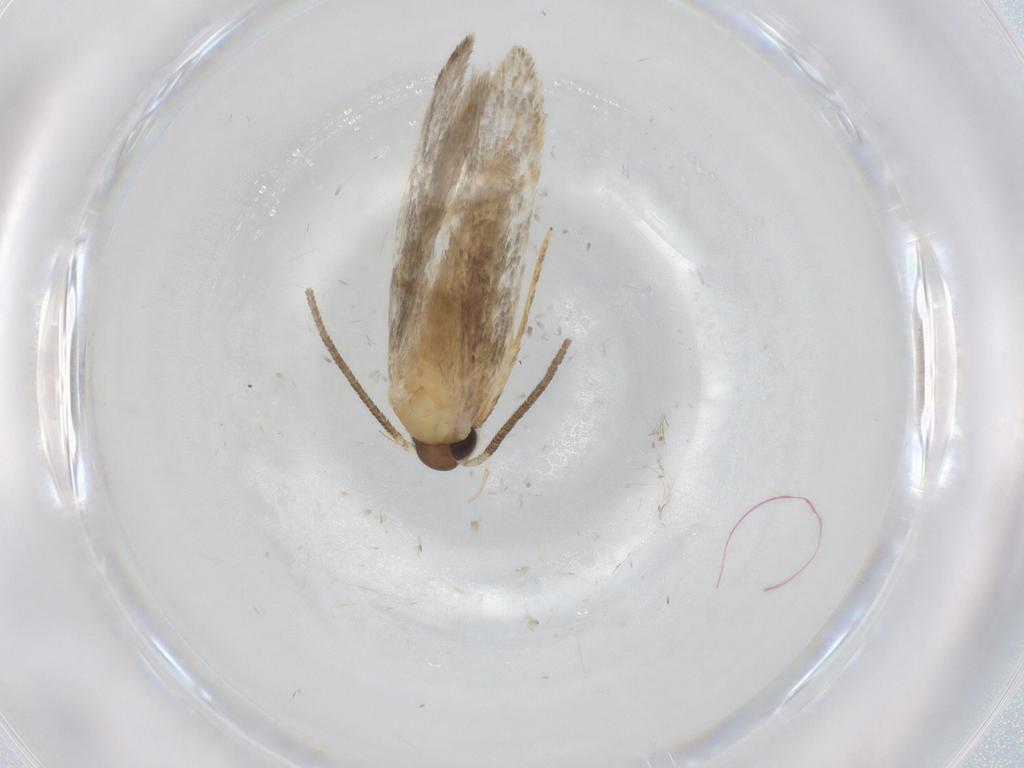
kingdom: Animalia
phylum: Arthropoda
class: Insecta
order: Lepidoptera
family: Autostichidae
